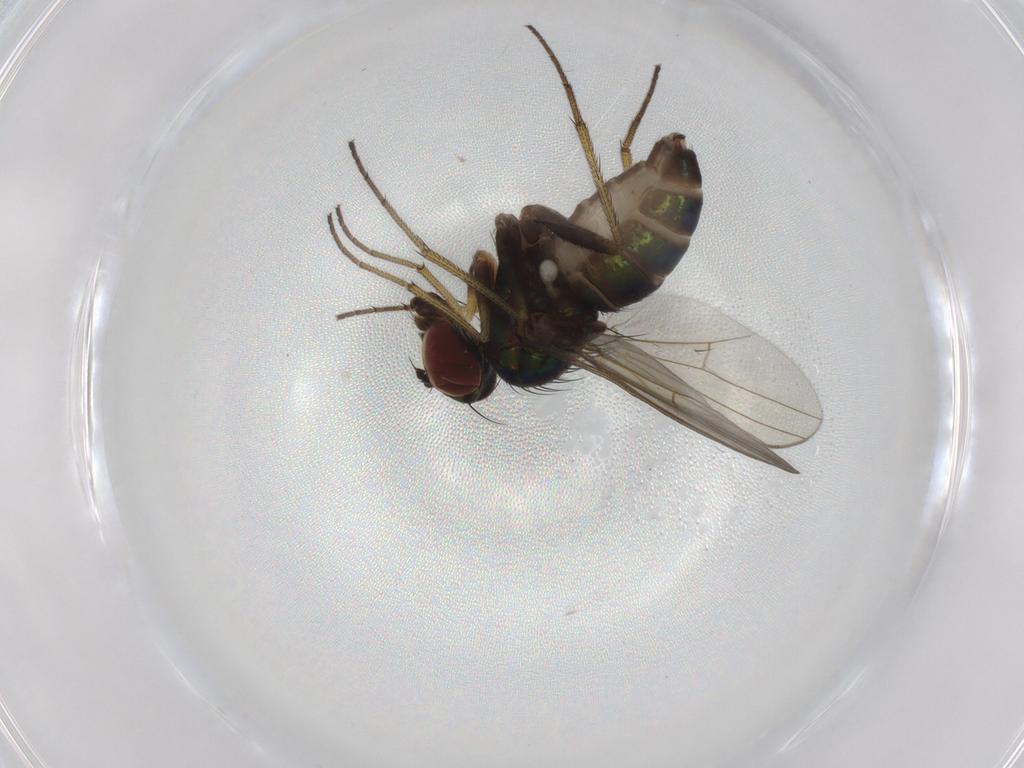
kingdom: Animalia
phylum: Arthropoda
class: Insecta
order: Diptera
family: Dolichopodidae
